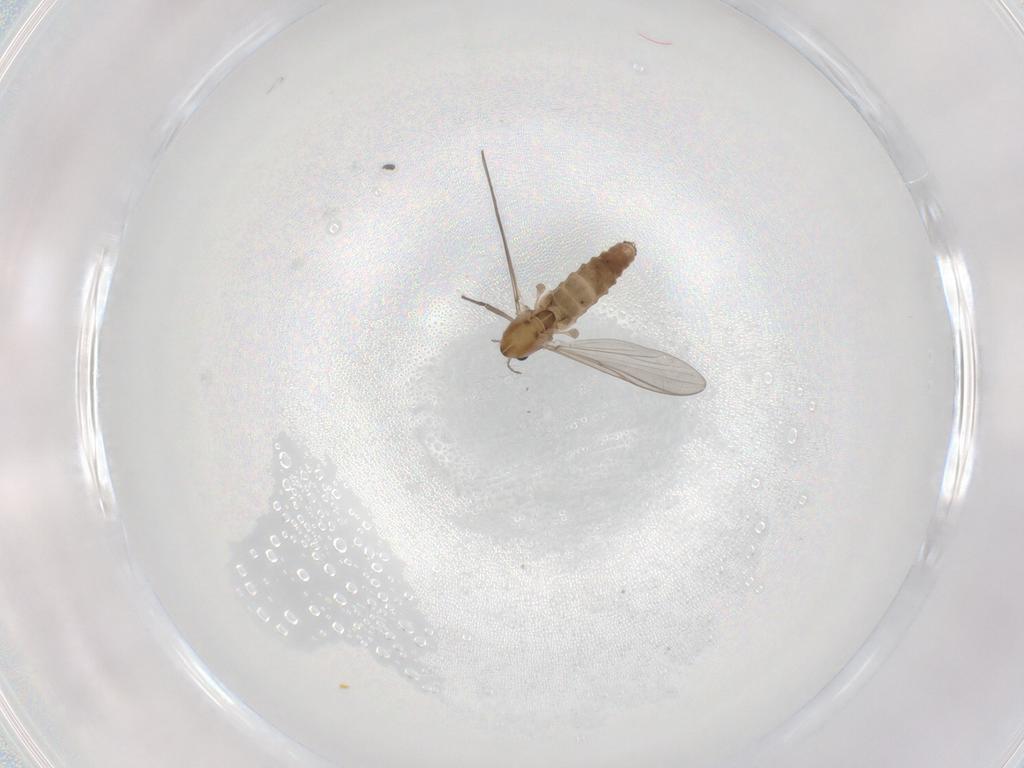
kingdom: Animalia
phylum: Arthropoda
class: Insecta
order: Diptera
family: Chironomidae
